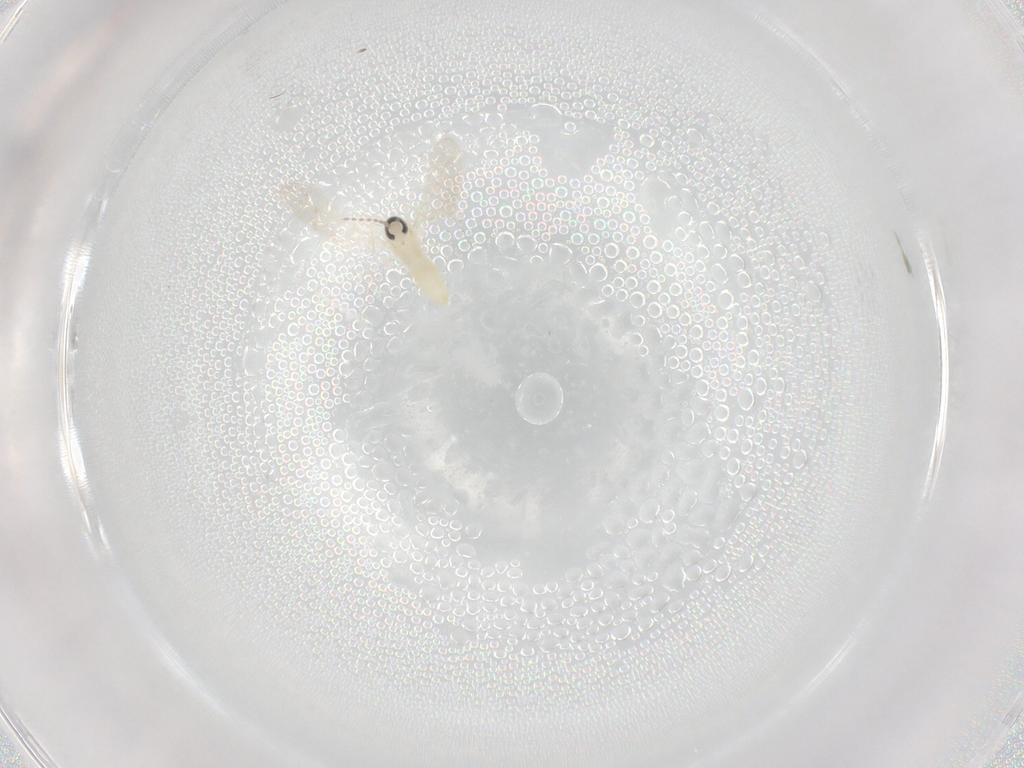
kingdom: Animalia
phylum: Arthropoda
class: Insecta
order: Diptera
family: Cecidomyiidae
